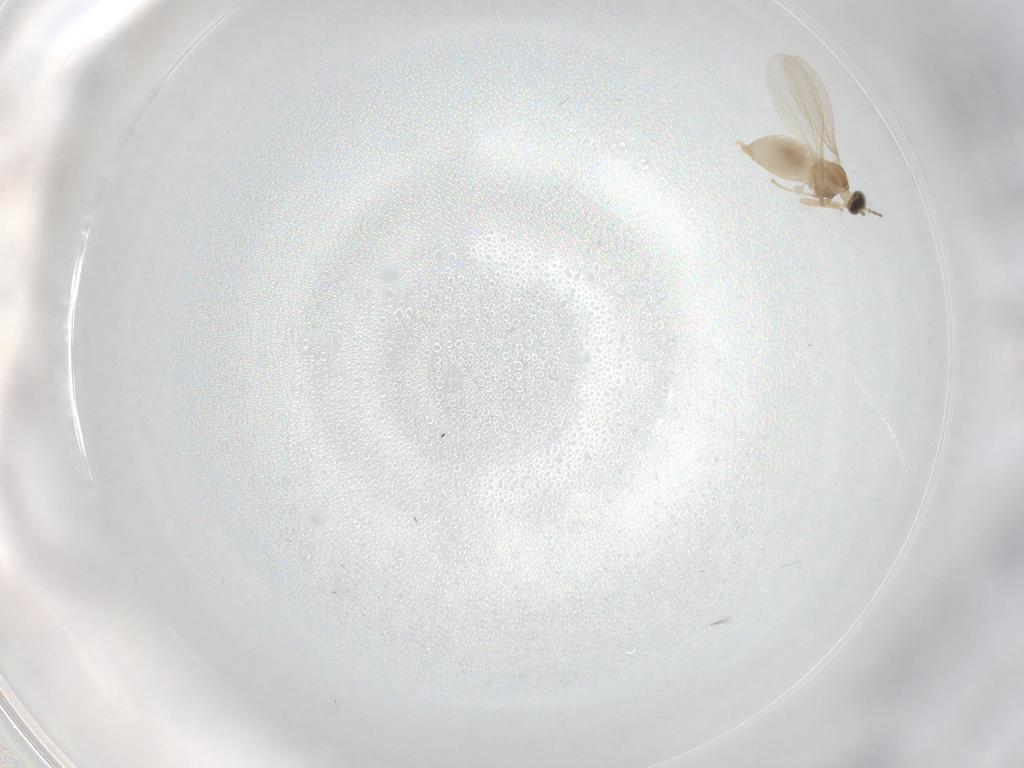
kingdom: Animalia
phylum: Arthropoda
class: Insecta
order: Diptera
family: Cecidomyiidae
